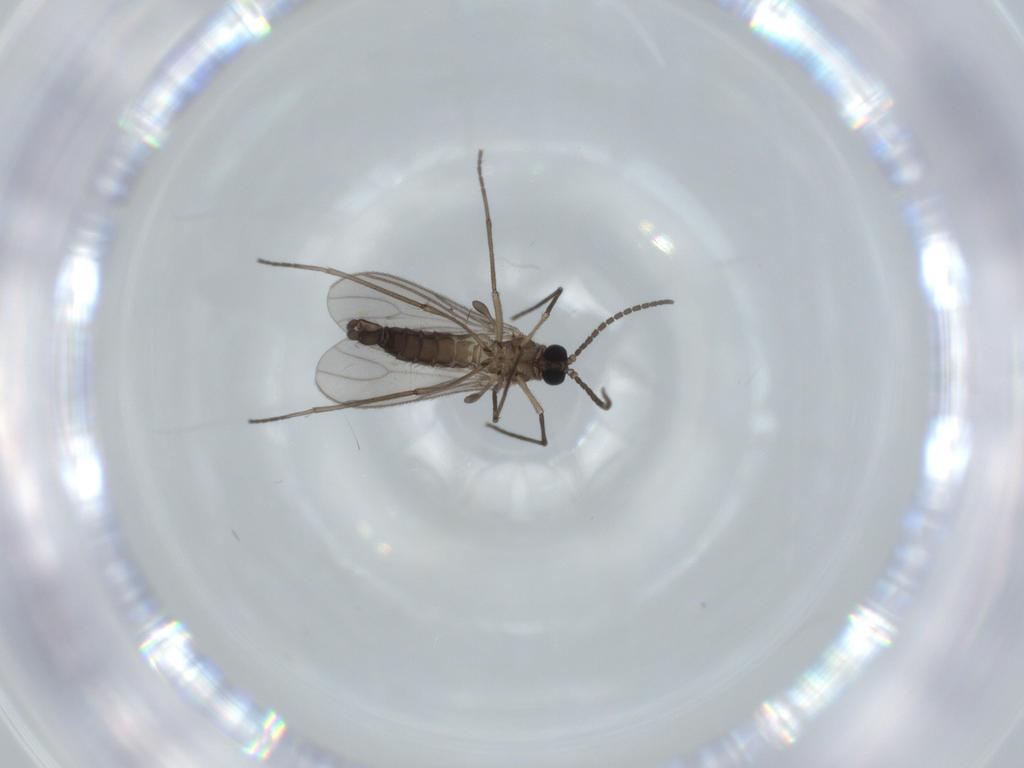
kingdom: Animalia
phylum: Arthropoda
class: Insecta
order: Diptera
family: Sciaridae
